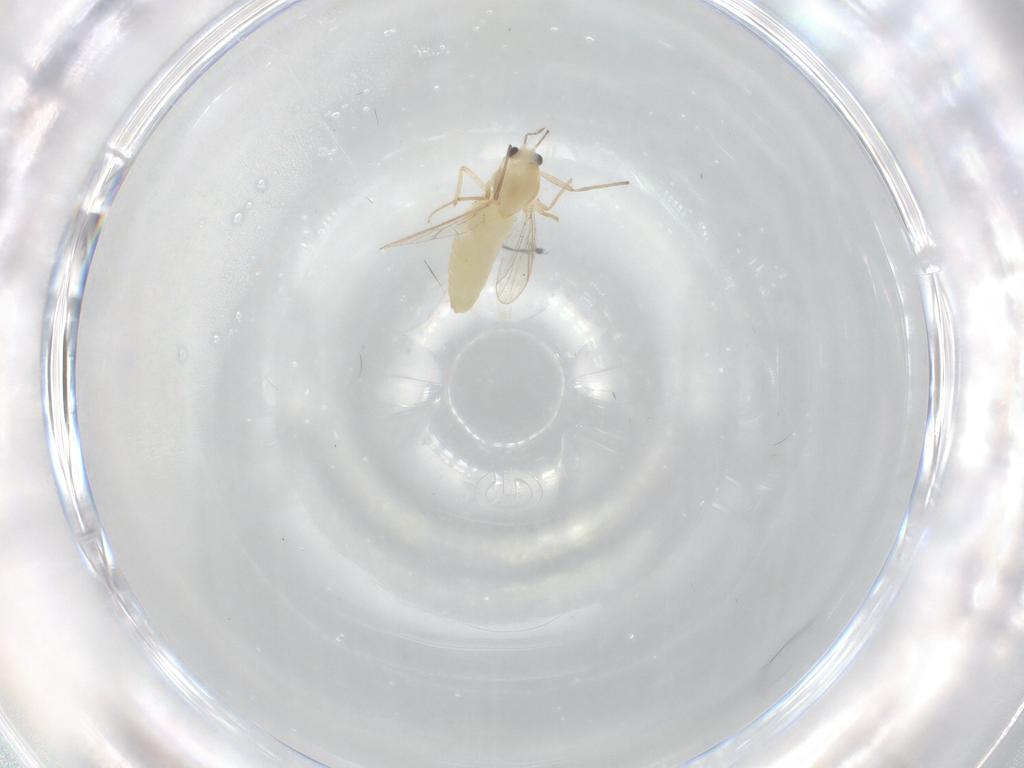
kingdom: Animalia
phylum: Arthropoda
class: Insecta
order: Diptera
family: Chironomidae
